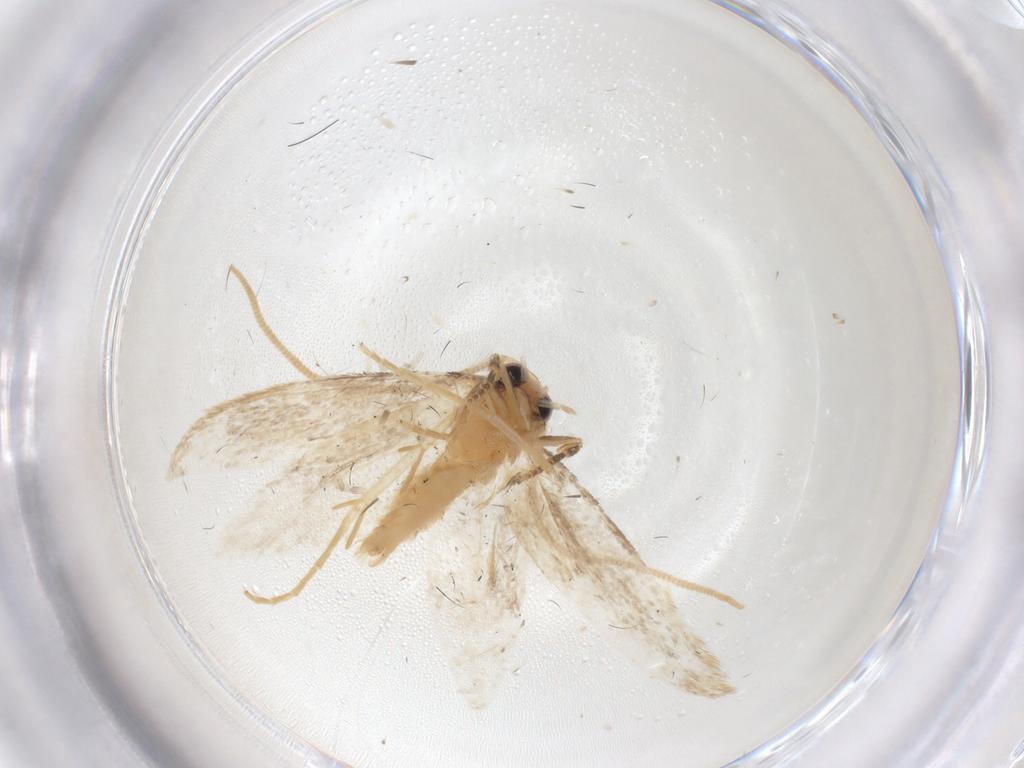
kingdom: Animalia
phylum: Arthropoda
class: Insecta
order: Lepidoptera
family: Tineidae
